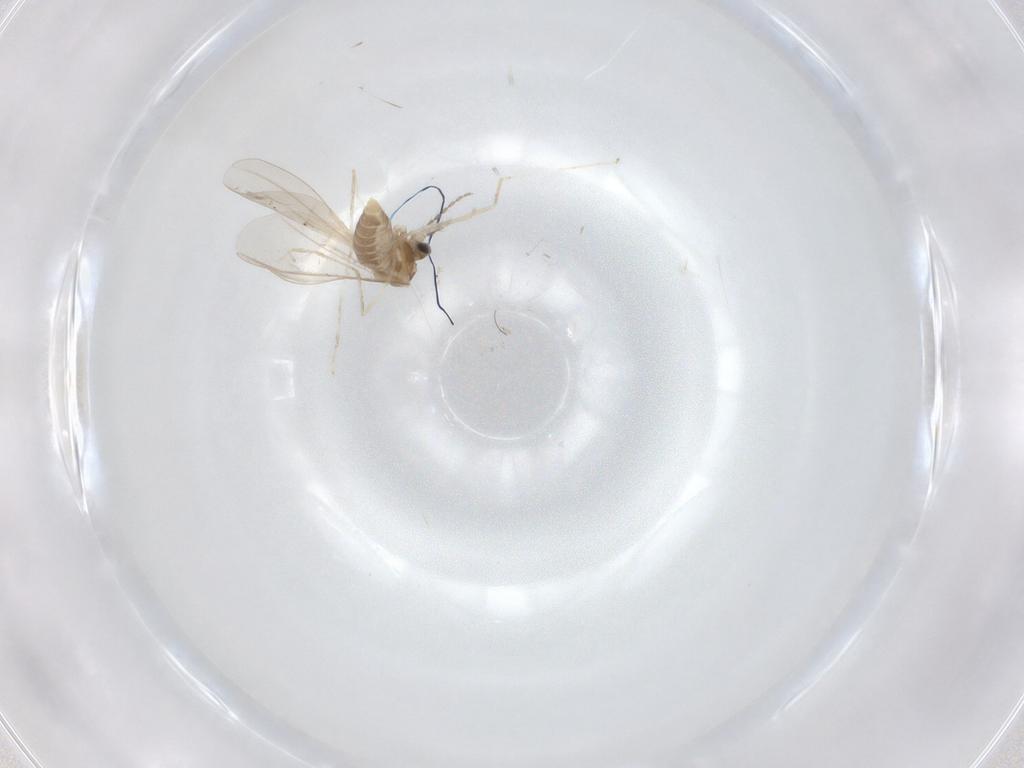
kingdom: Animalia
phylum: Arthropoda
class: Insecta
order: Diptera
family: Cecidomyiidae
